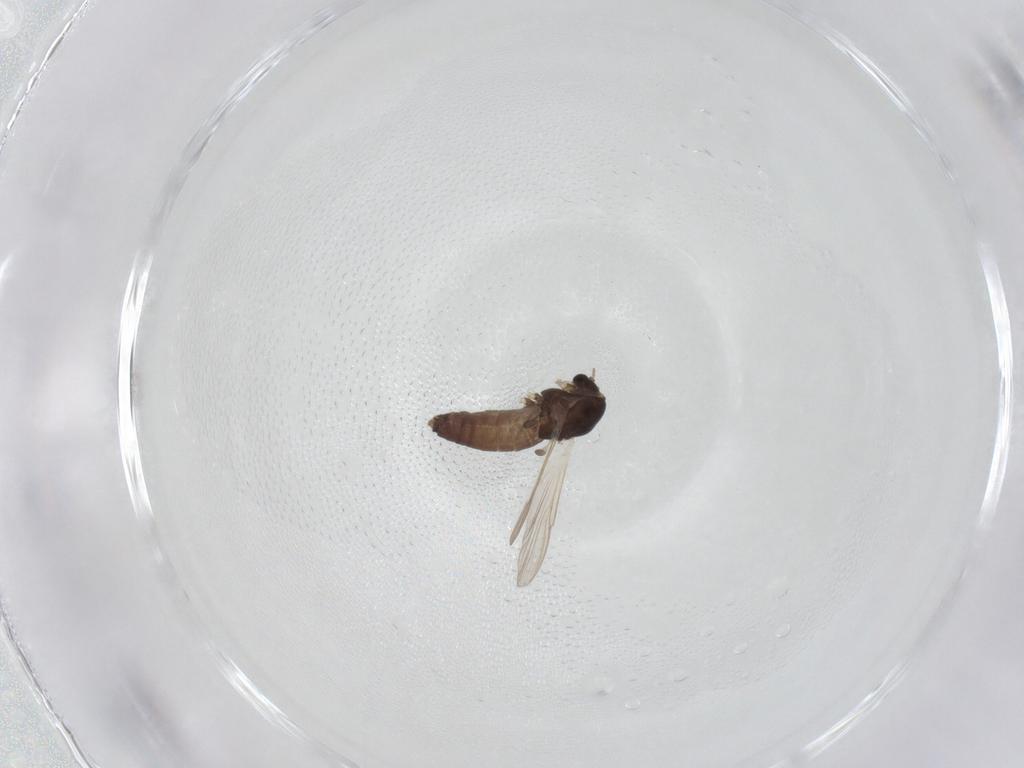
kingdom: Animalia
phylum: Arthropoda
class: Insecta
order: Diptera
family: Chironomidae
